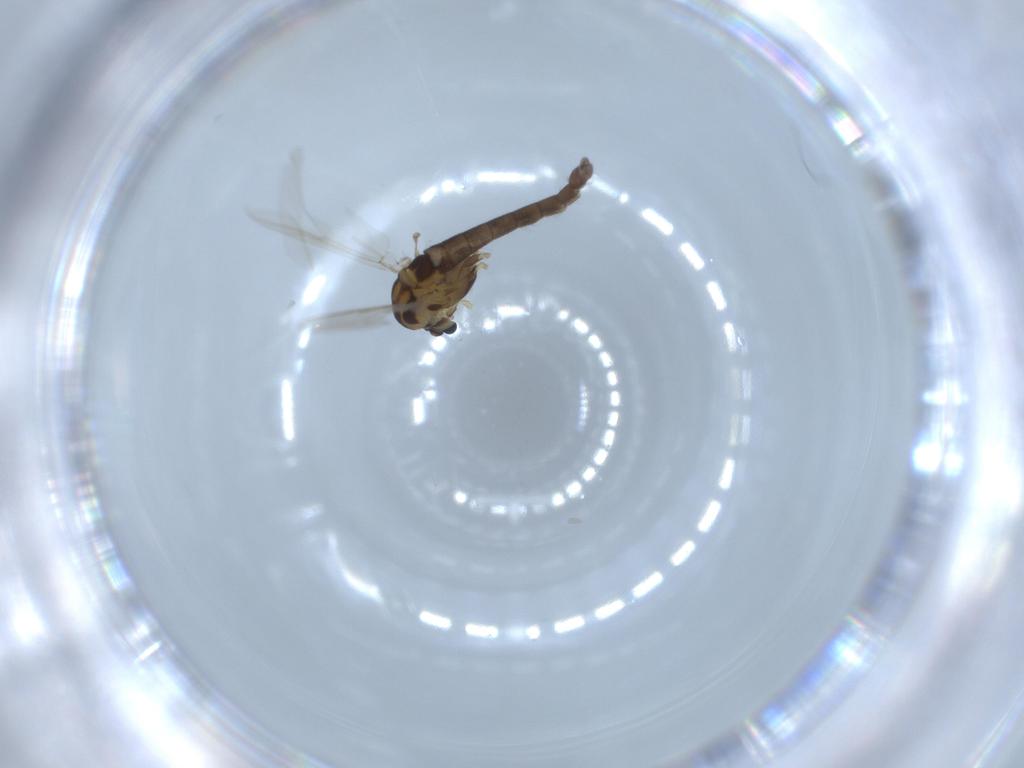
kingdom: Animalia
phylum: Arthropoda
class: Insecta
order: Diptera
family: Chironomidae
